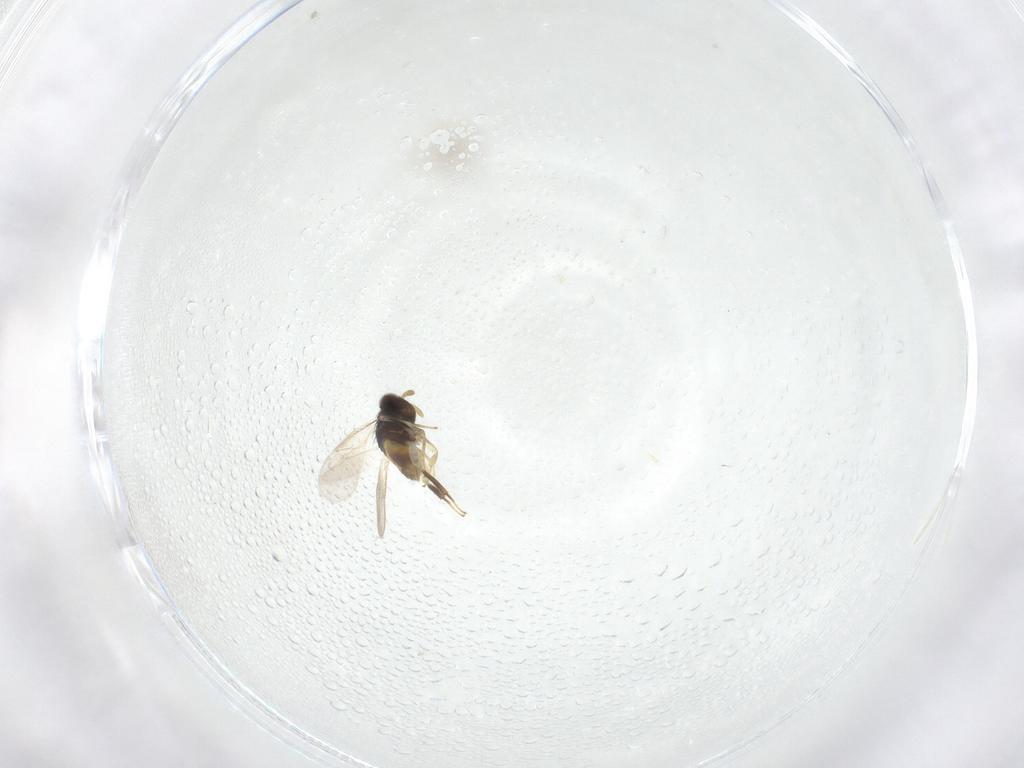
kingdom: Animalia
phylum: Arthropoda
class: Insecta
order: Hymenoptera
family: Aphelinidae
